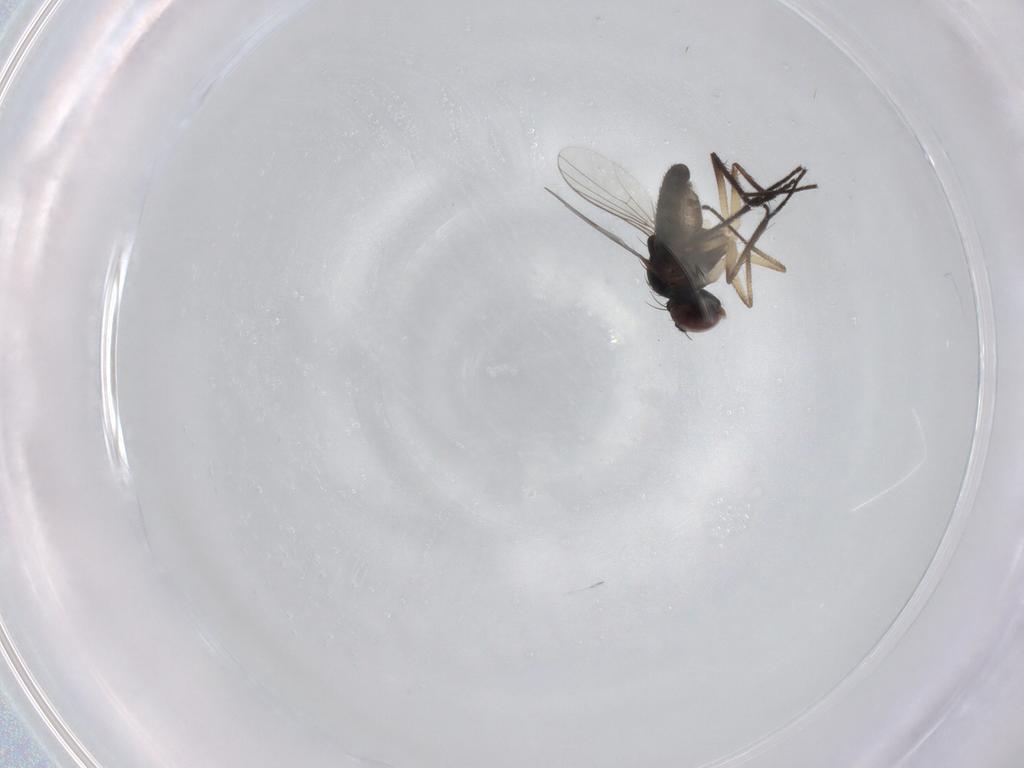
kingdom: Animalia
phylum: Arthropoda
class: Insecta
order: Diptera
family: Dolichopodidae
